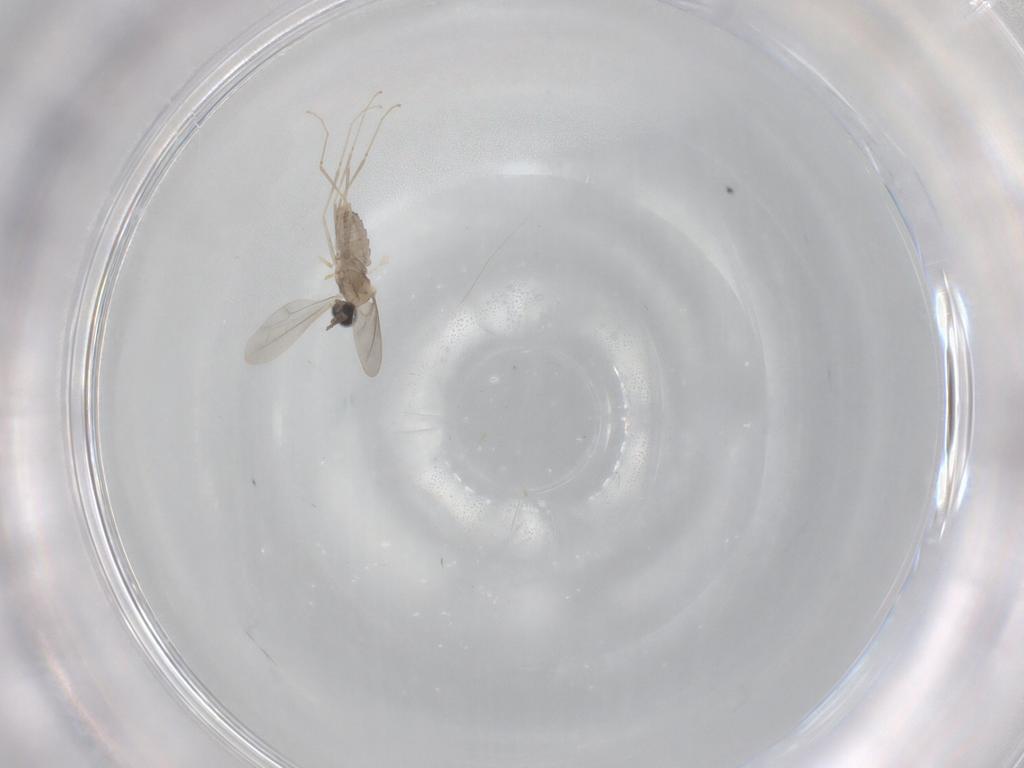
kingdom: Animalia
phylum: Arthropoda
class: Insecta
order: Diptera
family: Cecidomyiidae
